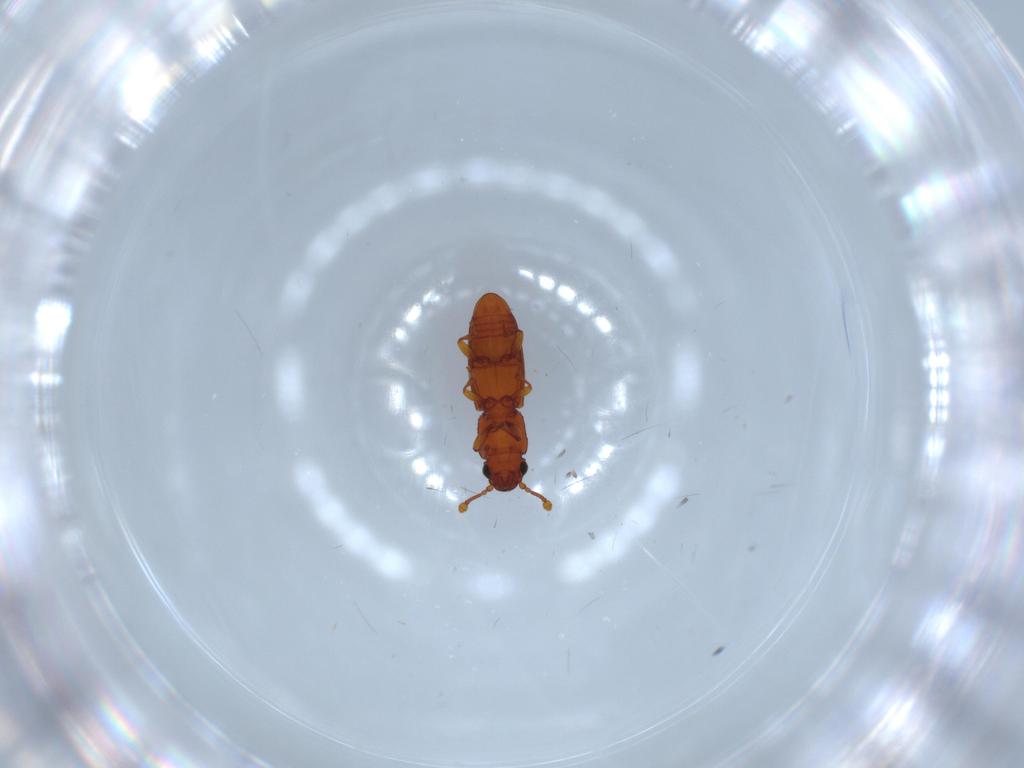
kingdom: Animalia
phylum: Arthropoda
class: Insecta
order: Coleoptera
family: Monotomidae
